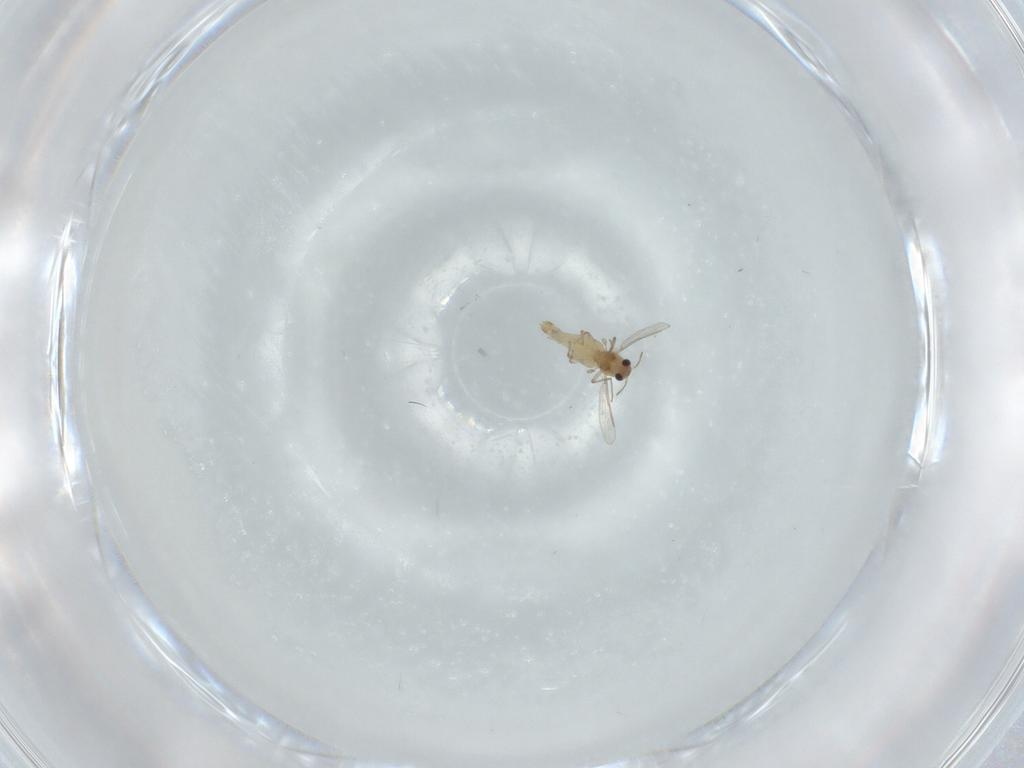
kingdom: Animalia
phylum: Arthropoda
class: Insecta
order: Diptera
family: Chironomidae
